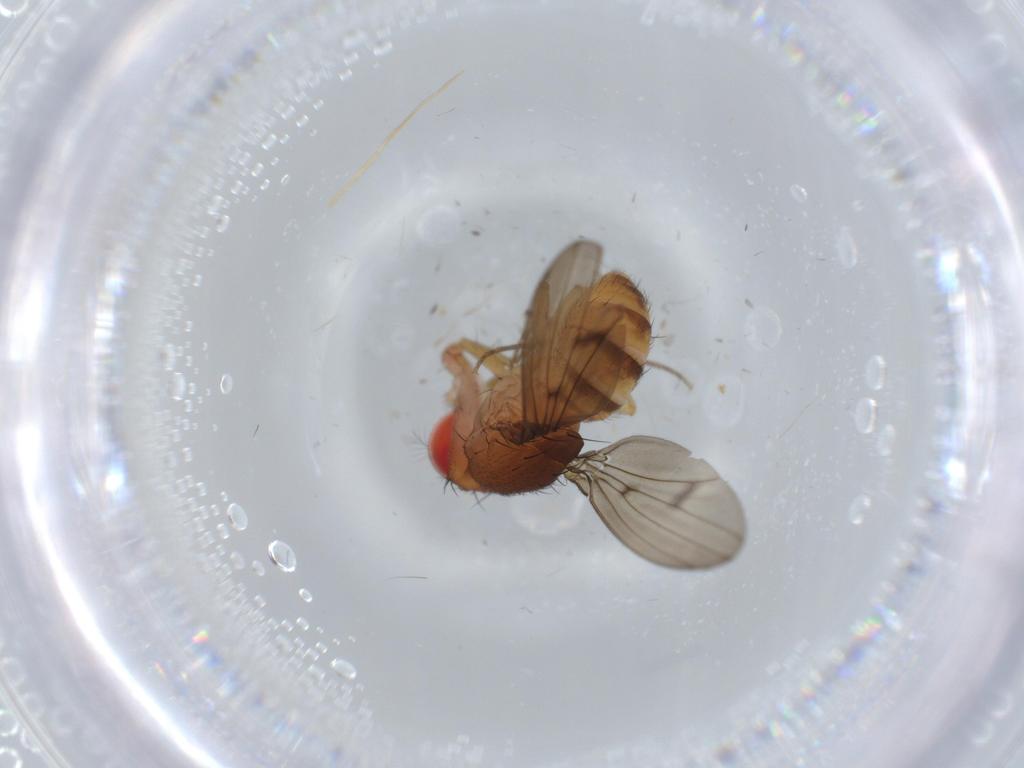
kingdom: Animalia
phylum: Arthropoda
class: Insecta
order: Diptera
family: Drosophilidae
